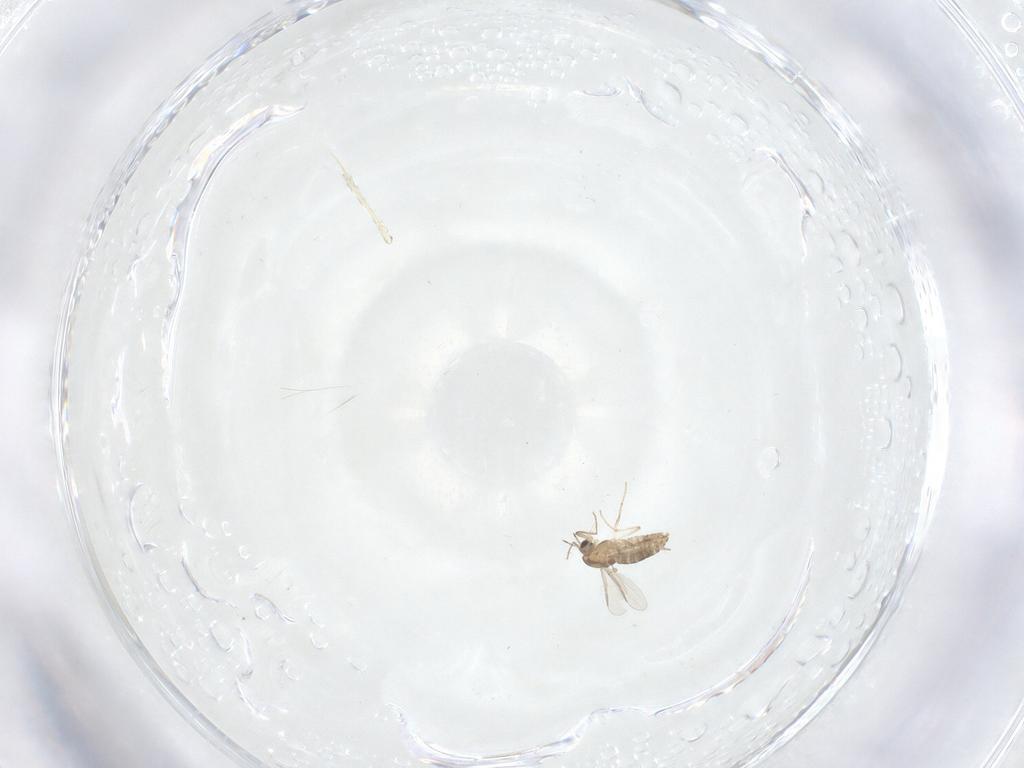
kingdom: Animalia
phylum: Arthropoda
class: Insecta
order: Diptera
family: Chironomidae
